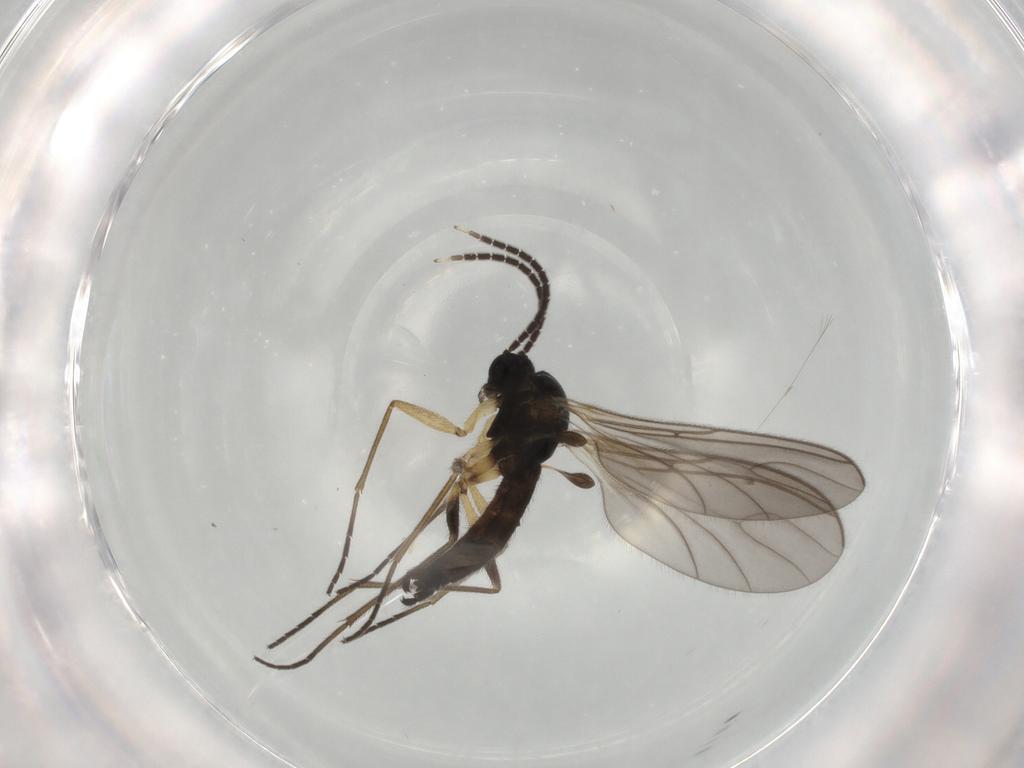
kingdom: Animalia
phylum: Arthropoda
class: Insecta
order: Diptera
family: Sciaridae
